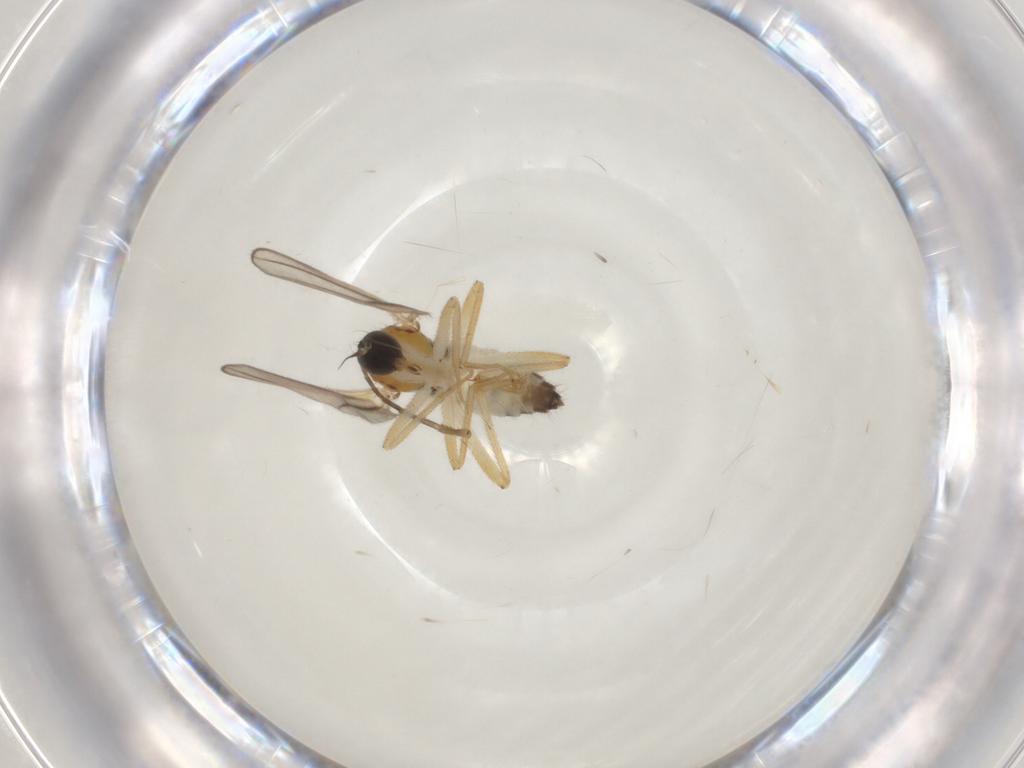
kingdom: Animalia
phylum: Arthropoda
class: Insecta
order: Diptera
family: Hybotidae
